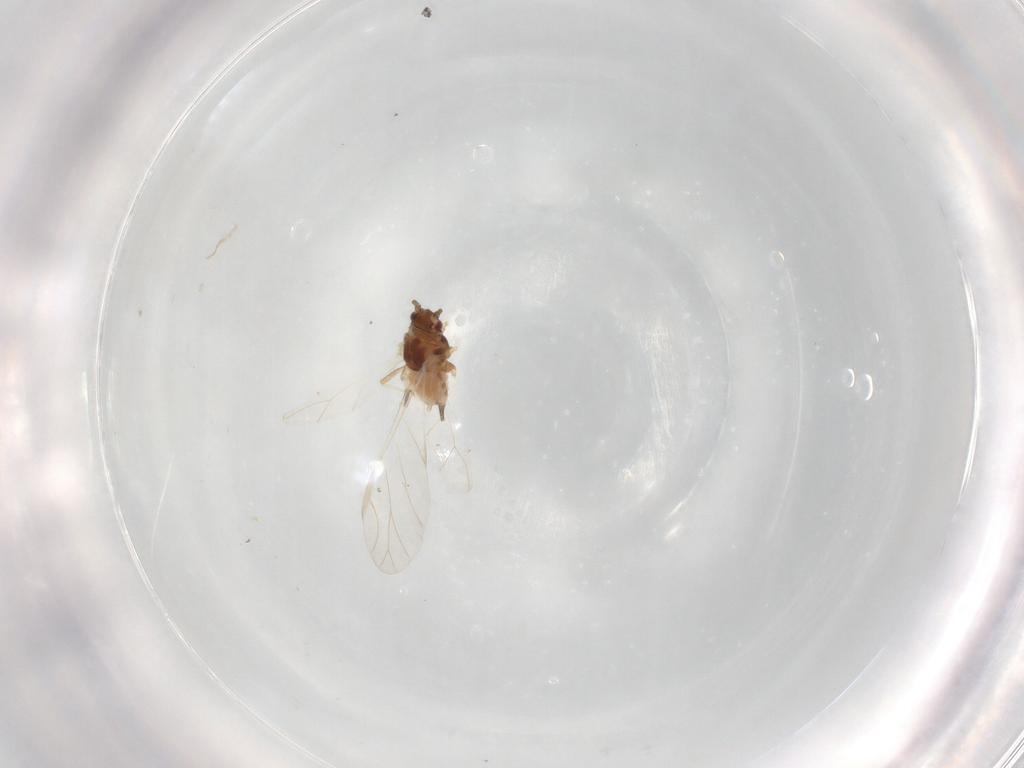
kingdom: Animalia
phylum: Arthropoda
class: Insecta
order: Hemiptera
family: Aphididae
